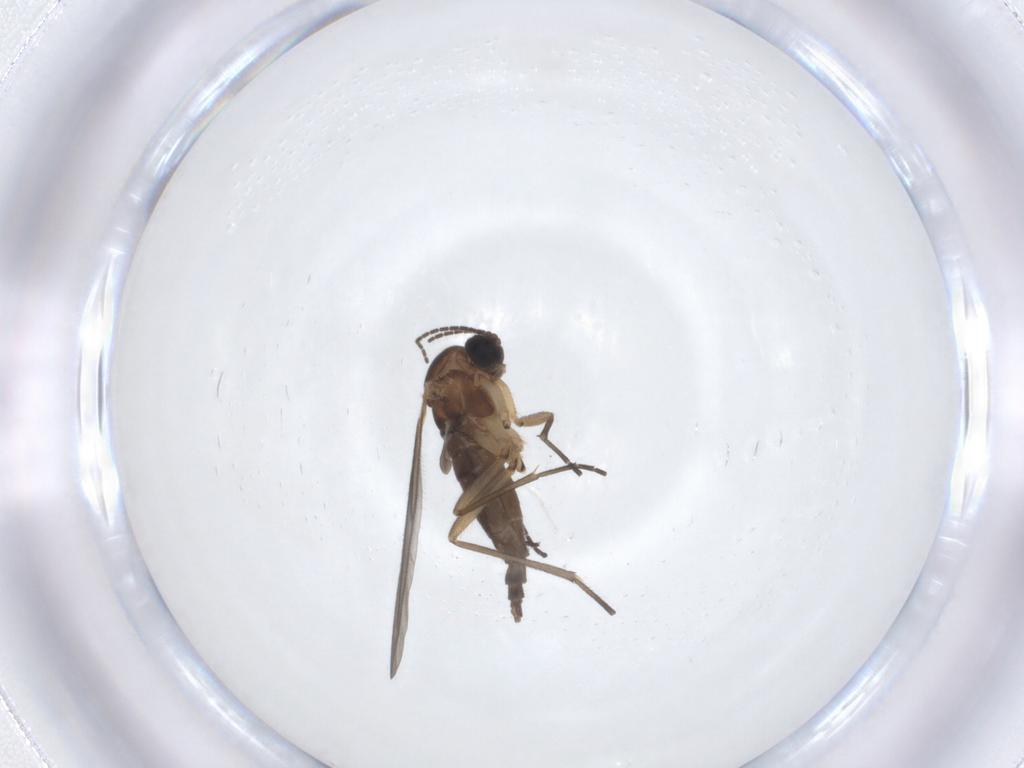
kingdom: Animalia
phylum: Arthropoda
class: Insecta
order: Diptera
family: Sciaridae
